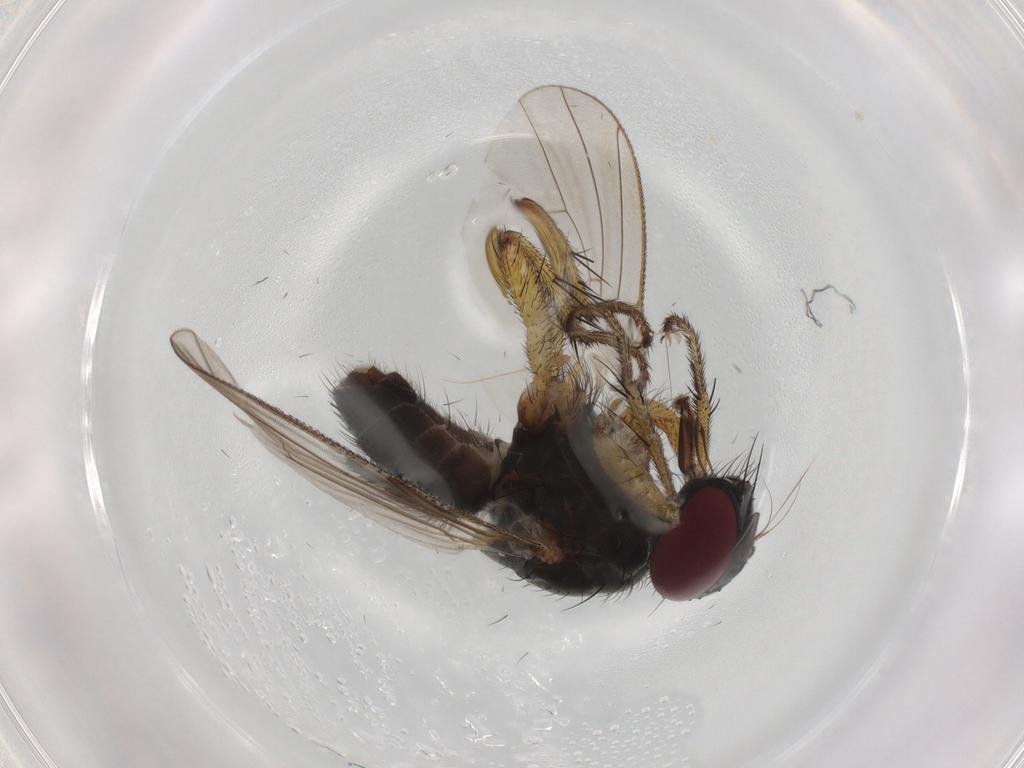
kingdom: Animalia
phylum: Arthropoda
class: Insecta
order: Diptera
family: Muscidae
